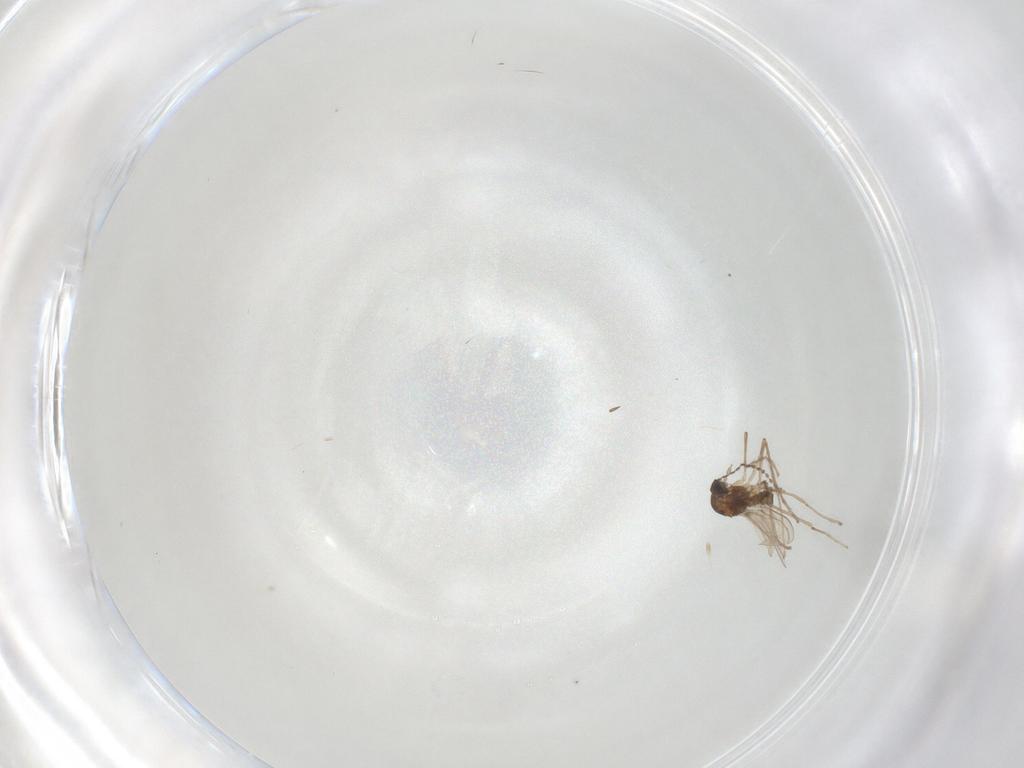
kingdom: Animalia
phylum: Arthropoda
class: Insecta
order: Diptera
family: Cecidomyiidae
